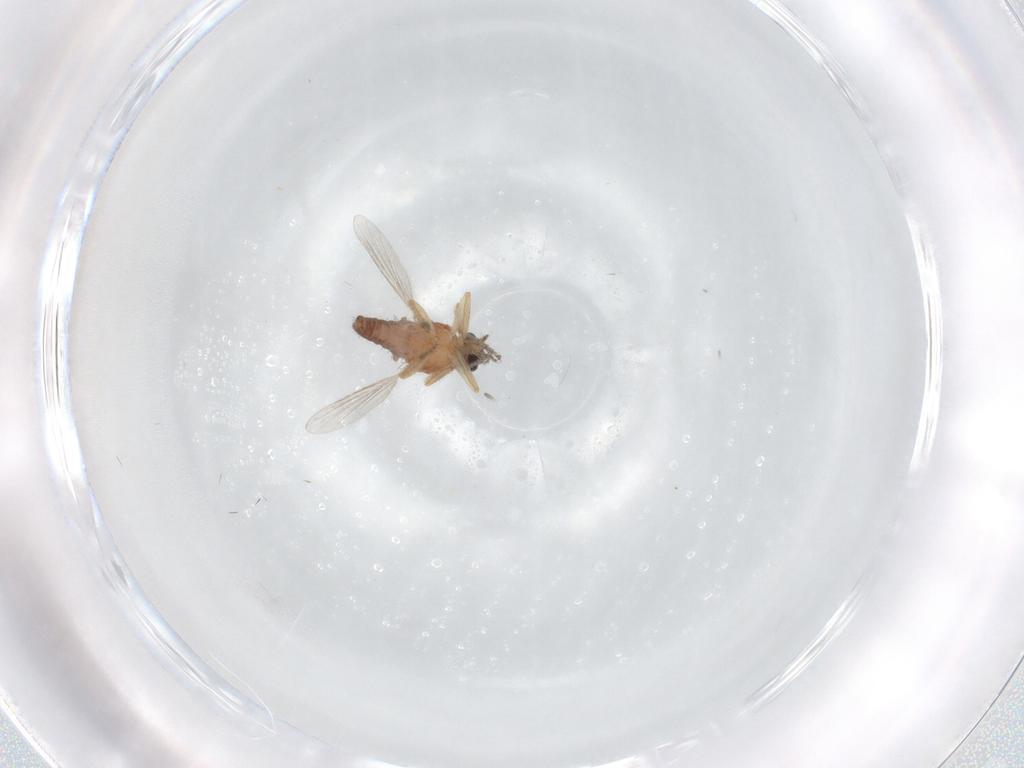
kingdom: Animalia
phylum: Arthropoda
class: Insecta
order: Diptera
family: Ceratopogonidae
